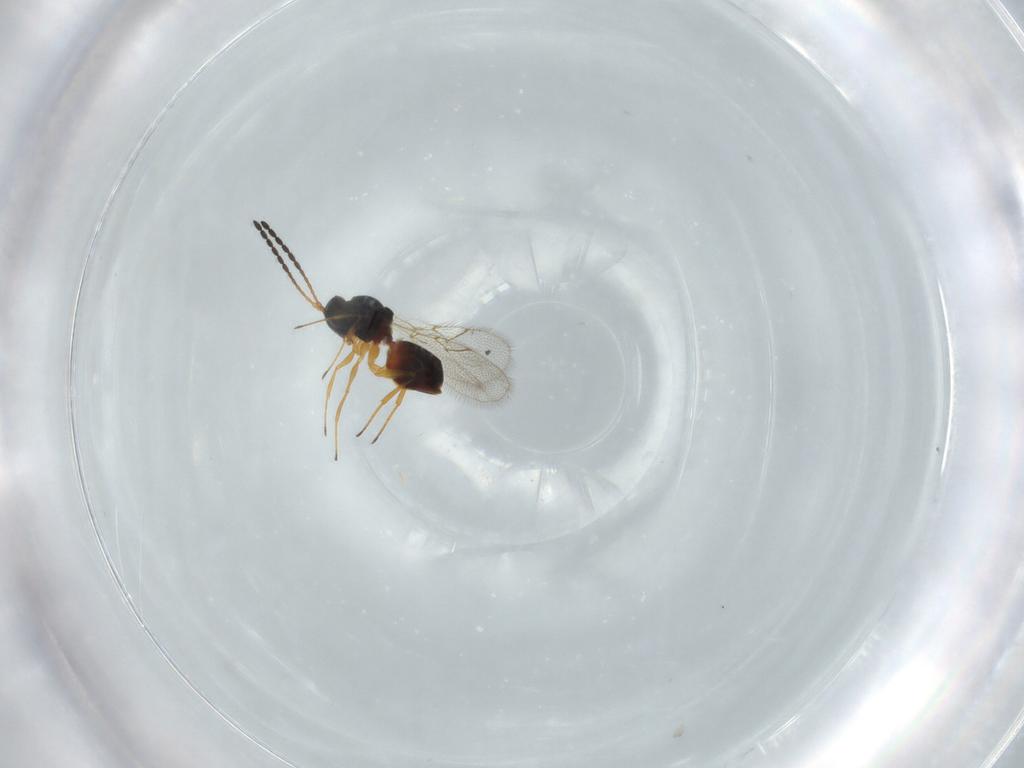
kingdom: Animalia
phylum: Arthropoda
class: Insecta
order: Hymenoptera
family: Figitidae
